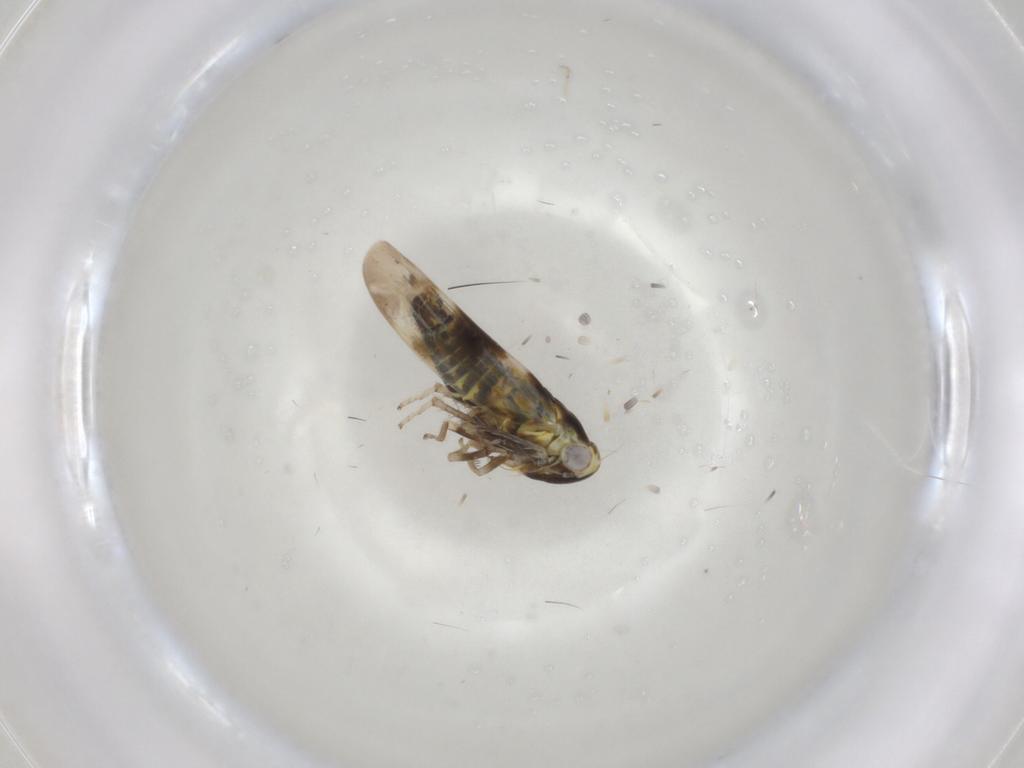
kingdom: Animalia
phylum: Arthropoda
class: Insecta
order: Hemiptera
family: Cicadellidae
